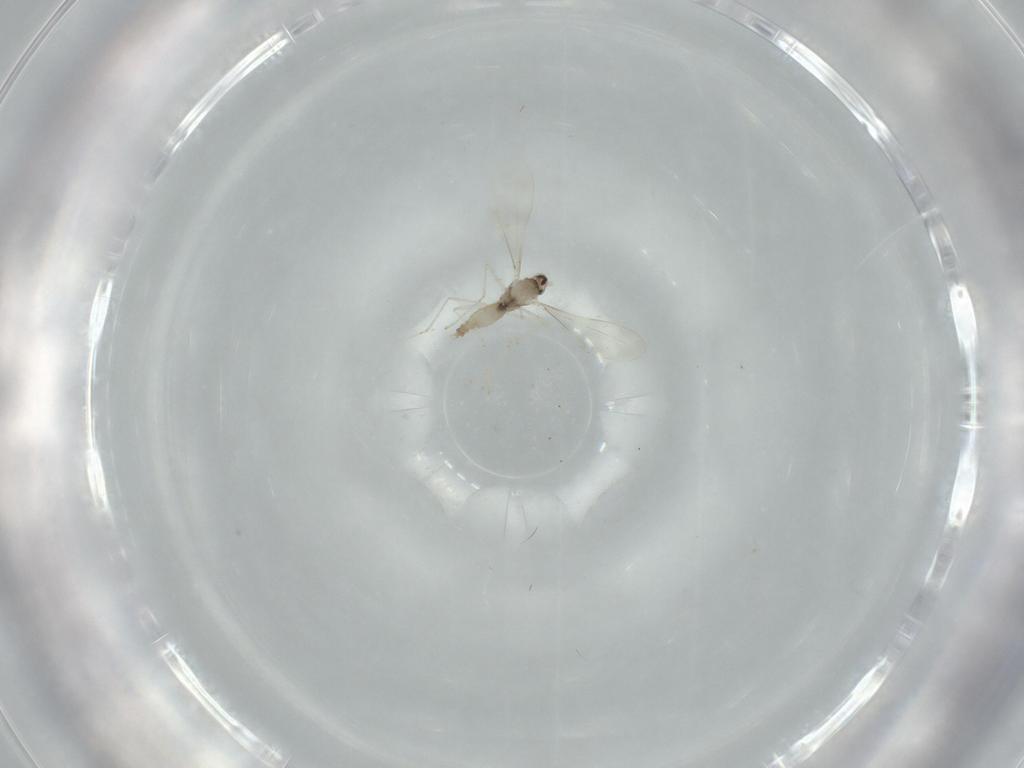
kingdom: Animalia
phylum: Arthropoda
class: Insecta
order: Diptera
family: Cecidomyiidae
